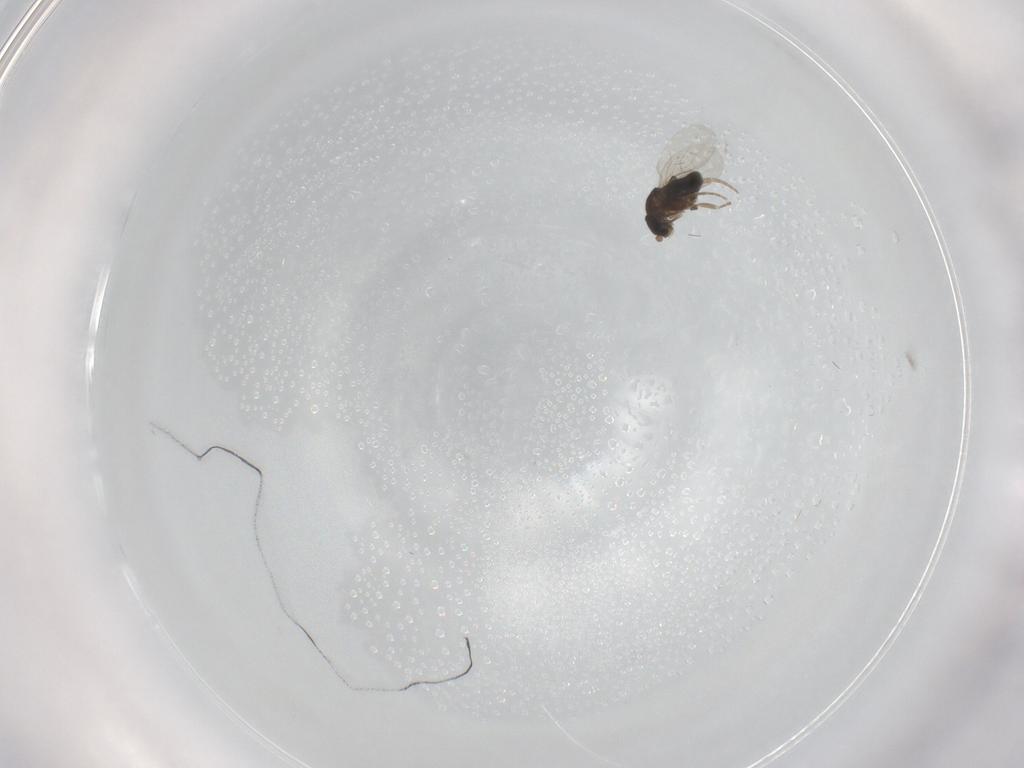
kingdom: Animalia
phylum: Arthropoda
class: Insecta
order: Diptera
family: Phoridae
